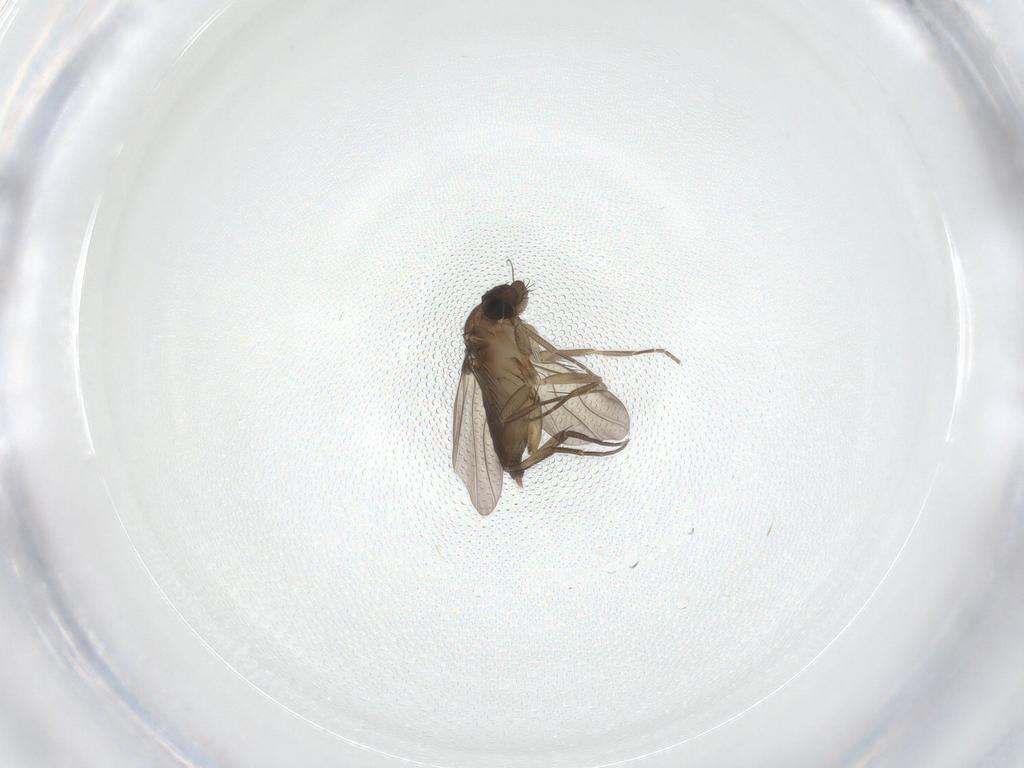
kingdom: Animalia
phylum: Arthropoda
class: Insecta
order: Diptera
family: Phoridae
